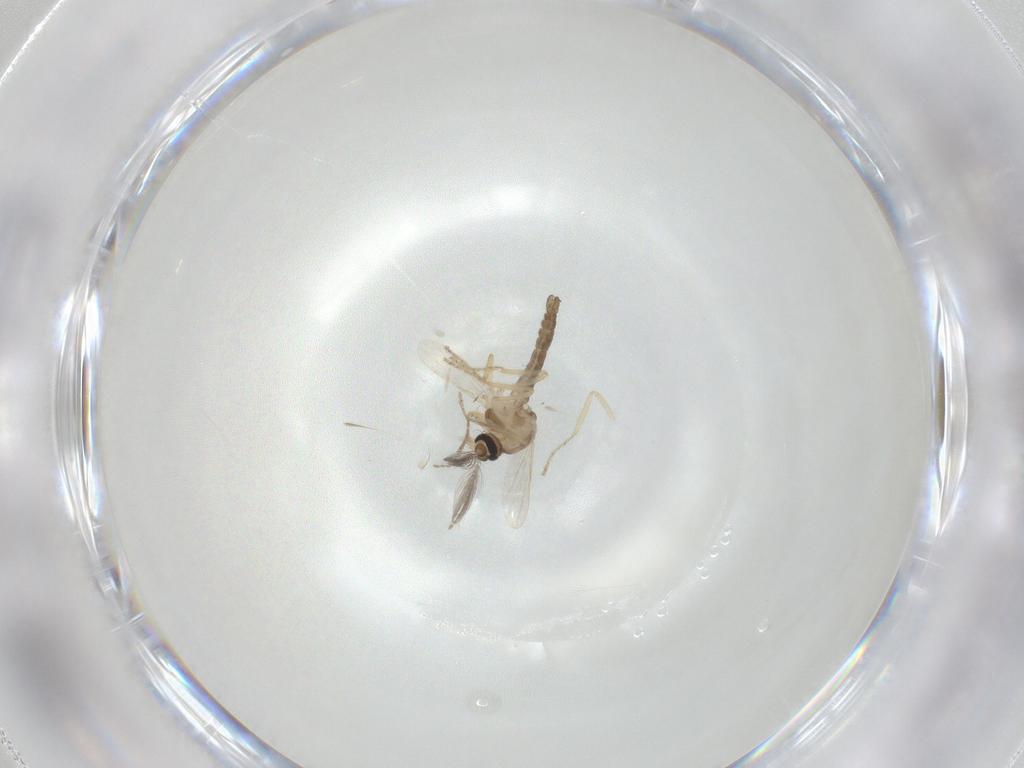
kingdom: Animalia
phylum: Arthropoda
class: Insecta
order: Diptera
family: Ceratopogonidae
